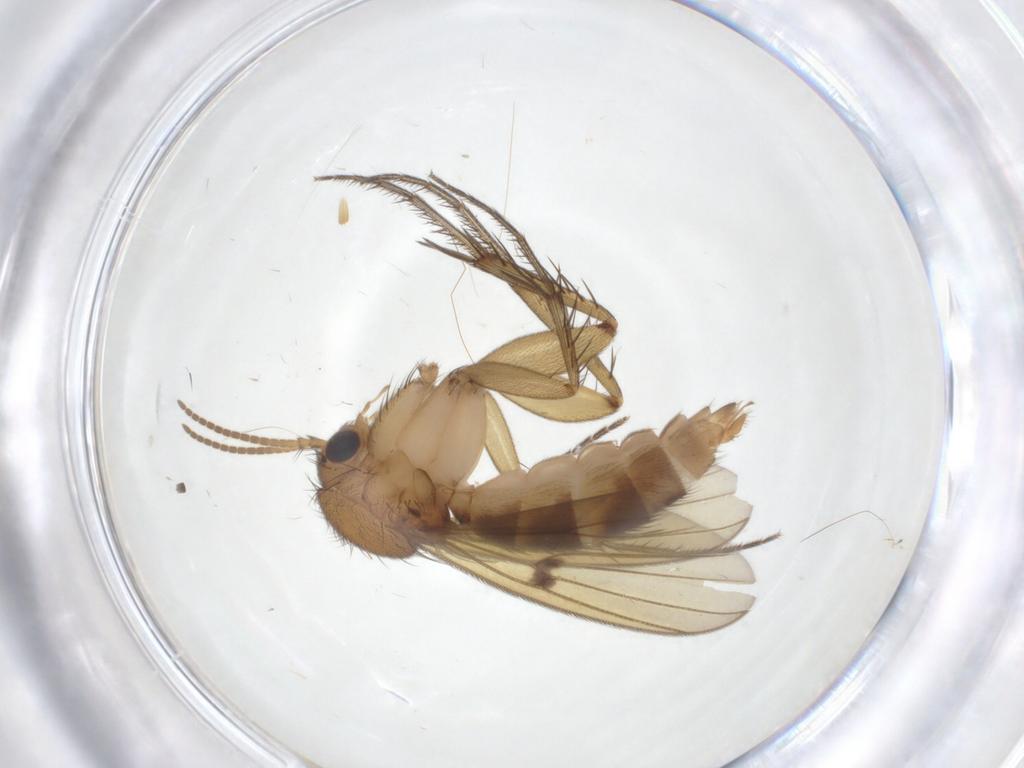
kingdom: Animalia
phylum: Arthropoda
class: Insecta
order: Diptera
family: Mycetophilidae
